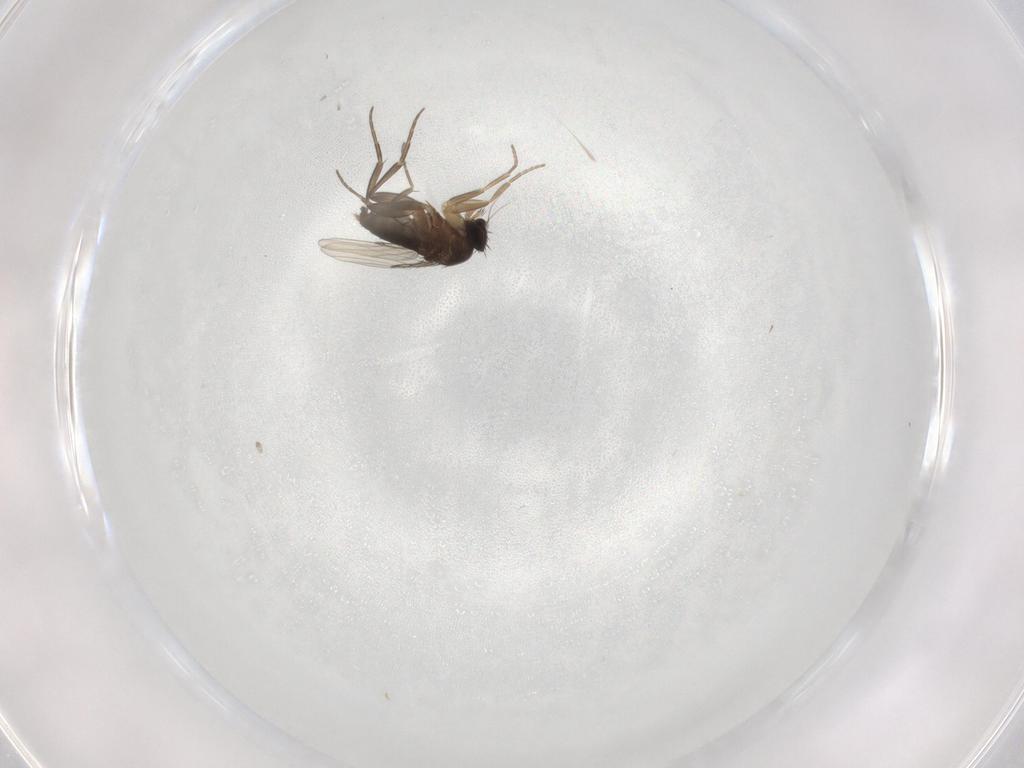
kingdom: Animalia
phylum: Arthropoda
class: Insecta
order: Diptera
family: Phoridae
